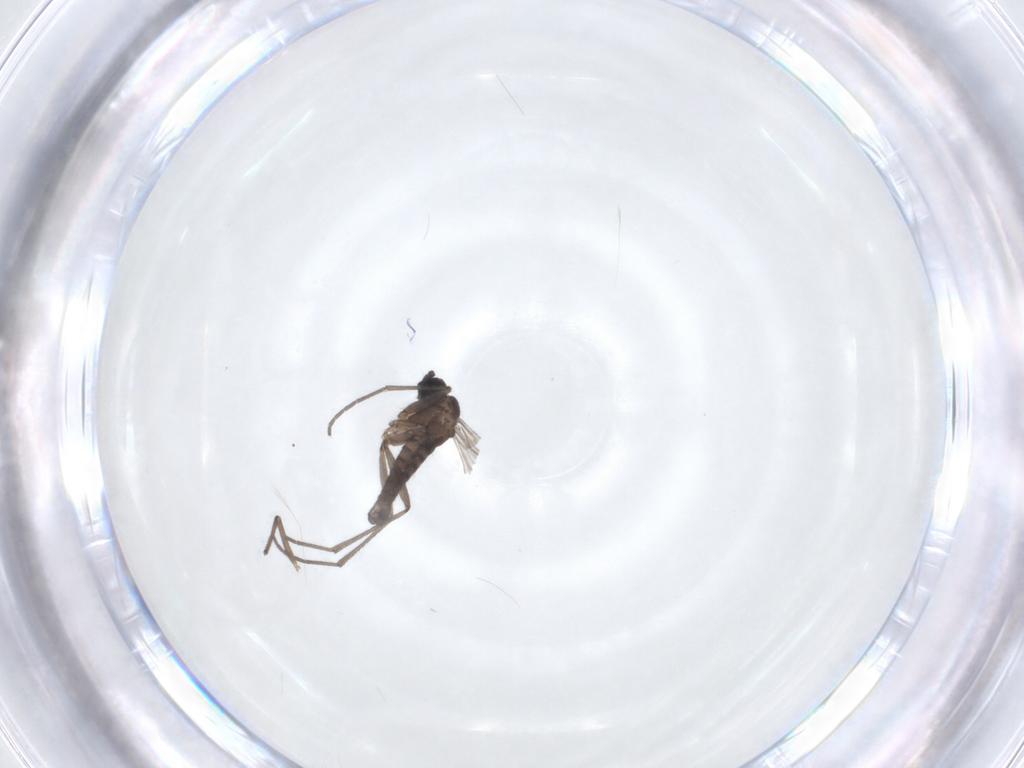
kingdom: Animalia
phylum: Arthropoda
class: Insecta
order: Diptera
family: Sciaridae
